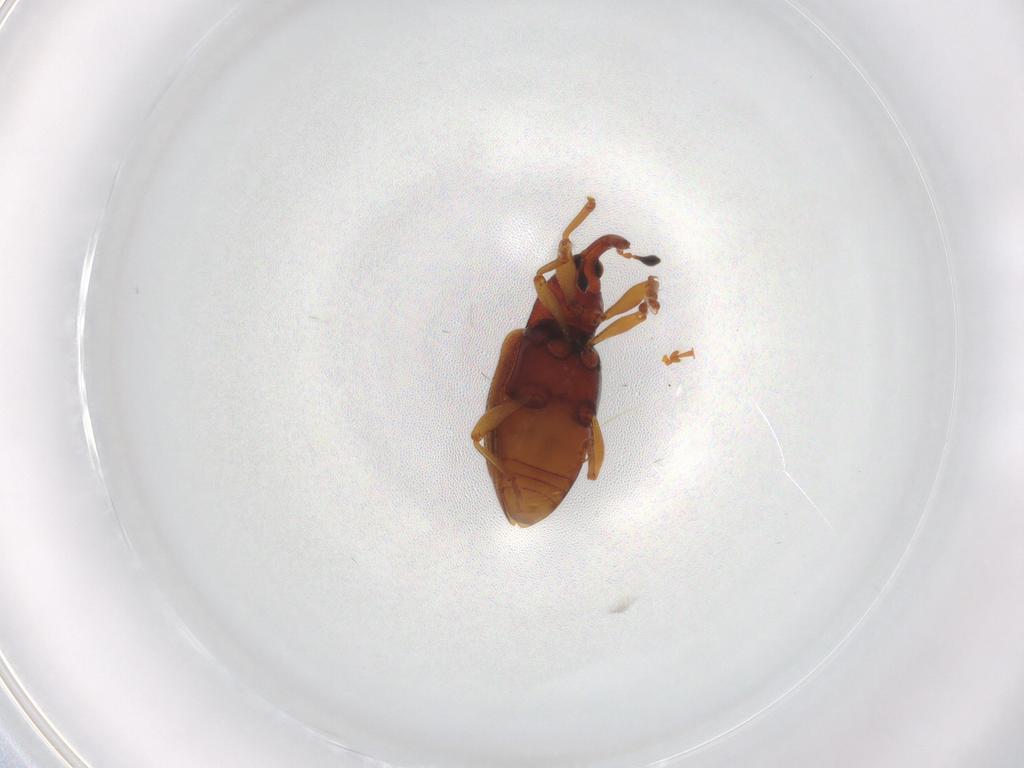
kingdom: Animalia
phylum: Arthropoda
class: Insecta
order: Coleoptera
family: Curculionidae
